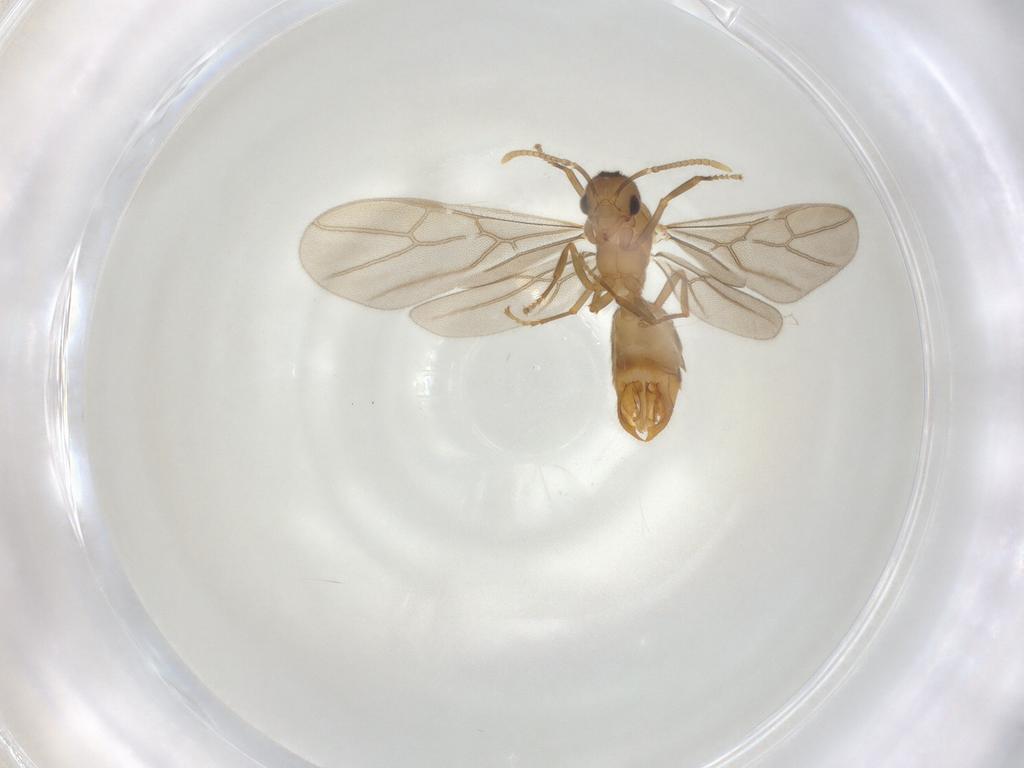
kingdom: Animalia
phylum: Arthropoda
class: Insecta
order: Hymenoptera
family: Formicidae
